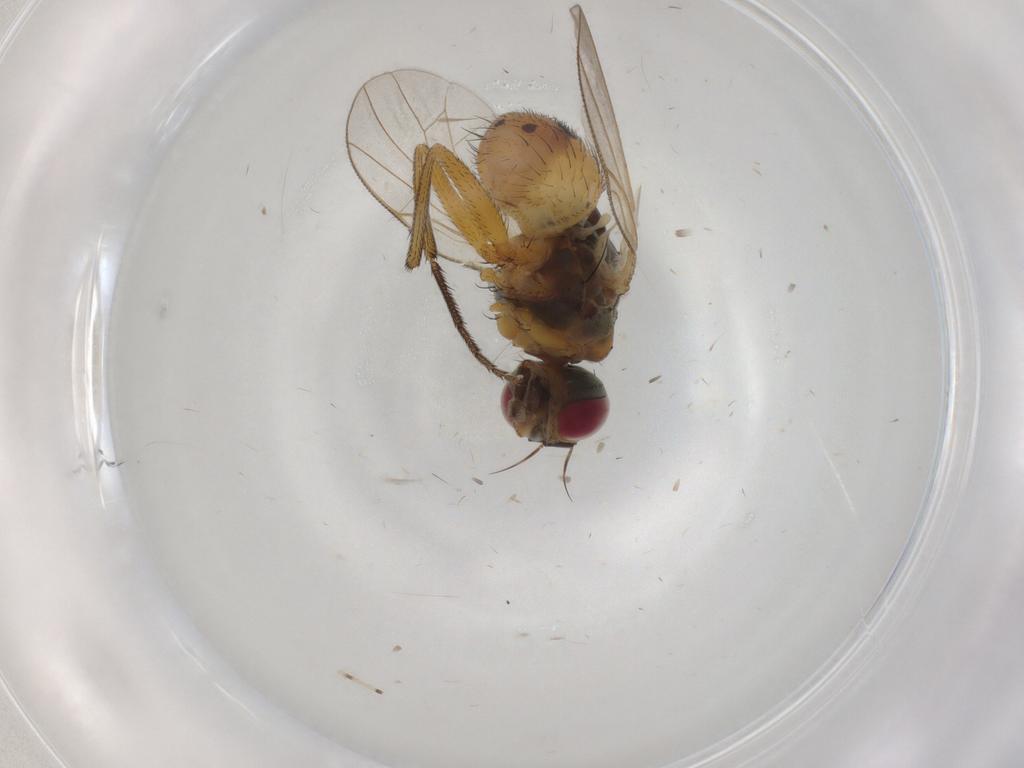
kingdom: Animalia
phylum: Arthropoda
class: Insecta
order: Diptera
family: Muscidae
